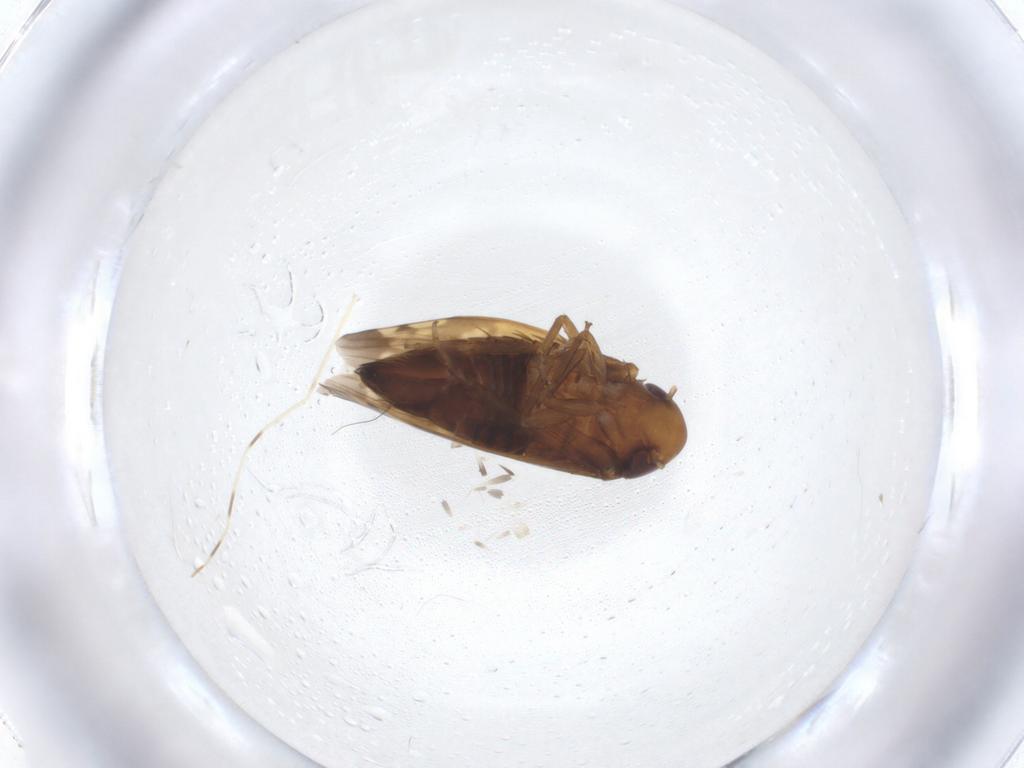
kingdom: Animalia
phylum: Arthropoda
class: Insecta
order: Hemiptera
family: Cicadellidae
